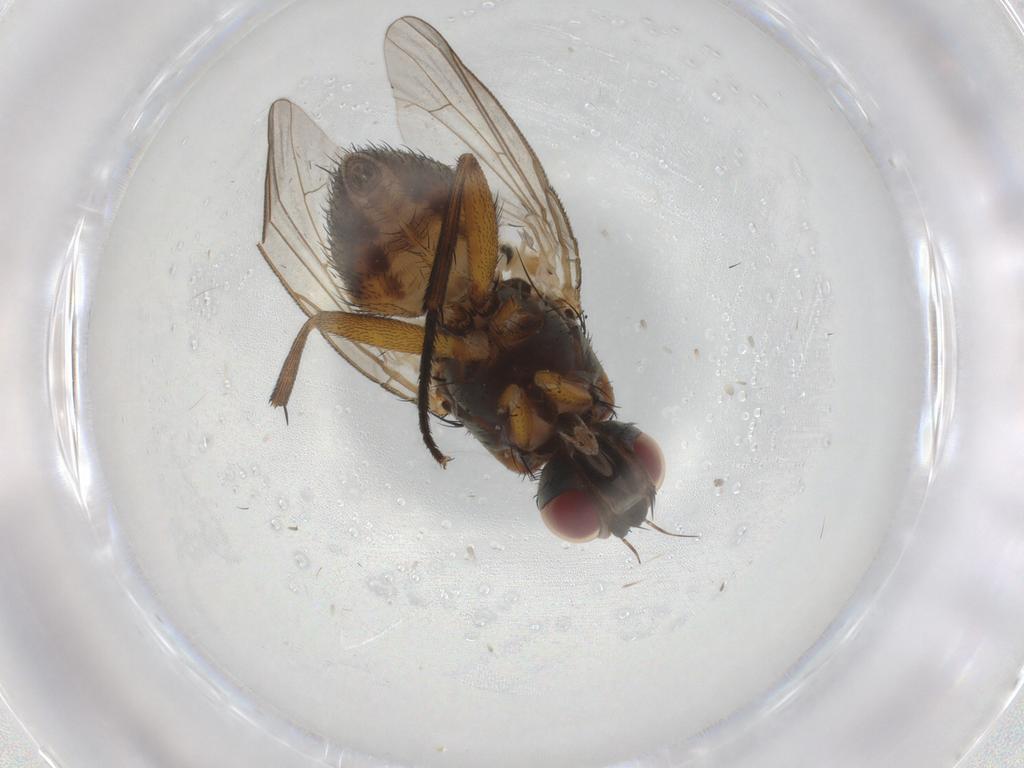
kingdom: Animalia
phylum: Arthropoda
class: Insecta
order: Diptera
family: Muscidae
